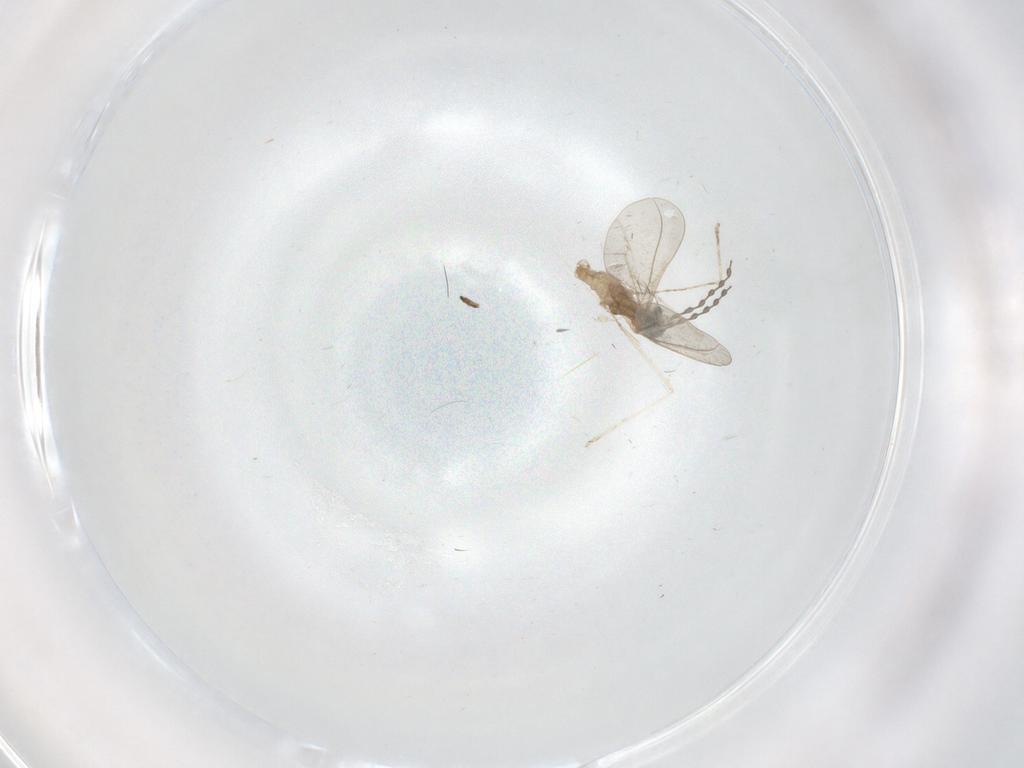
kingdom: Animalia
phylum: Arthropoda
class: Insecta
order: Diptera
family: Cecidomyiidae
